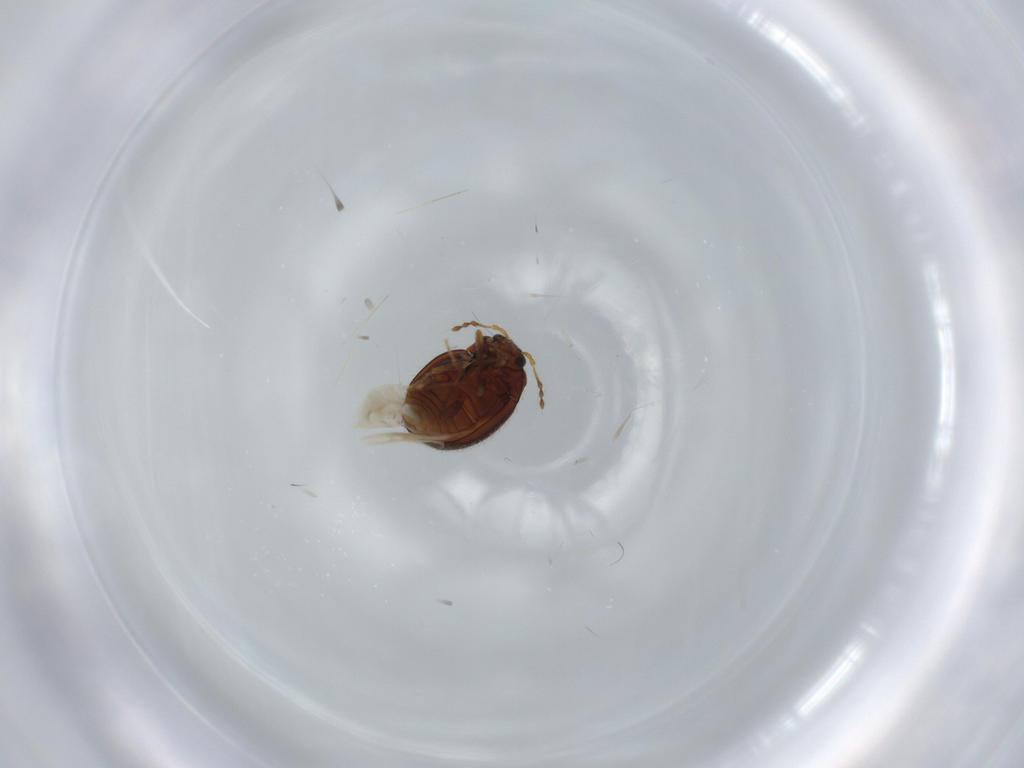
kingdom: Animalia
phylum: Arthropoda
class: Insecta
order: Coleoptera
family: Anamorphidae
